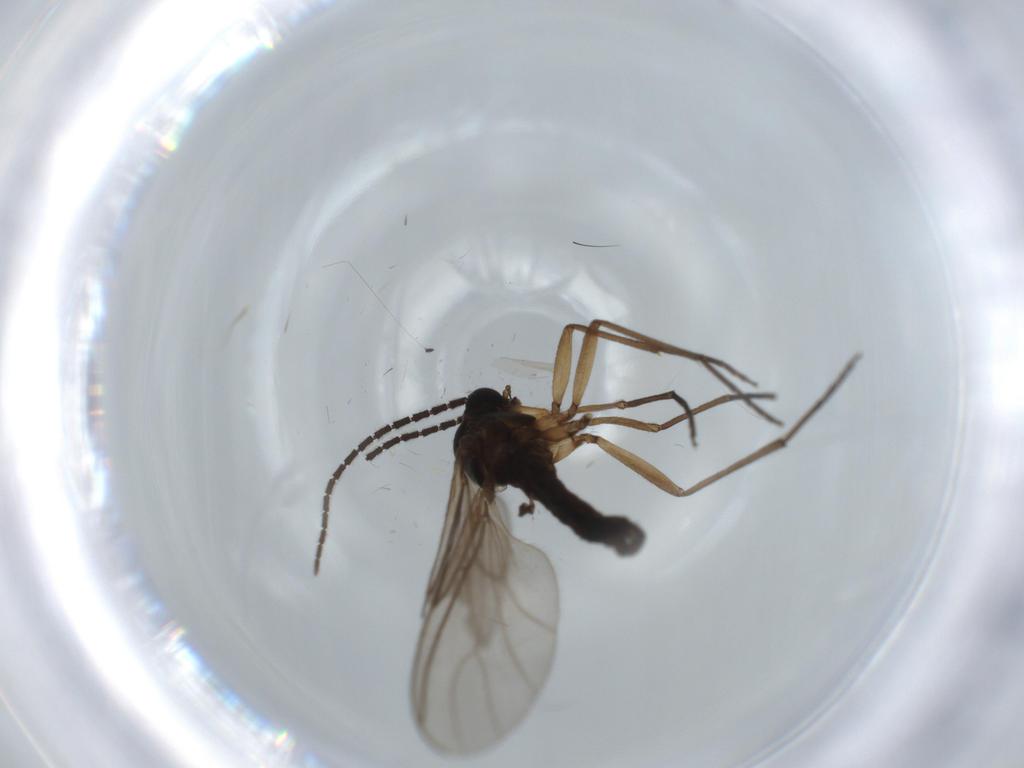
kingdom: Animalia
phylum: Arthropoda
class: Insecta
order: Diptera
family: Sciaridae
